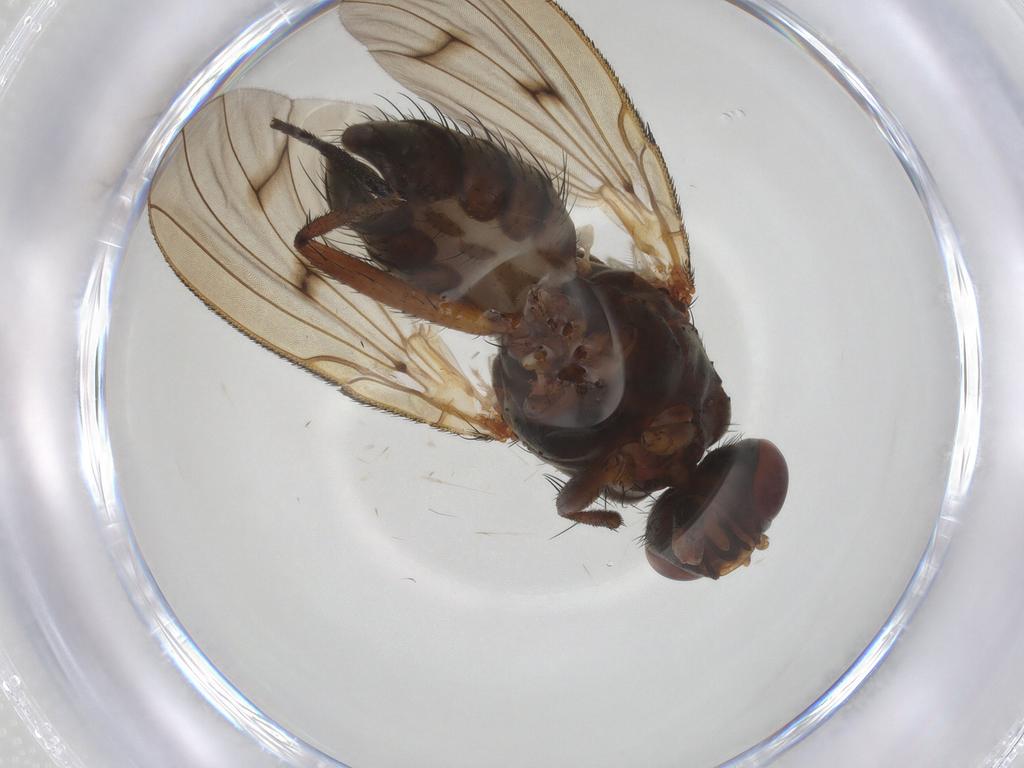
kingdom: Animalia
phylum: Arthropoda
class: Insecta
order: Diptera
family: Anthomyiidae
